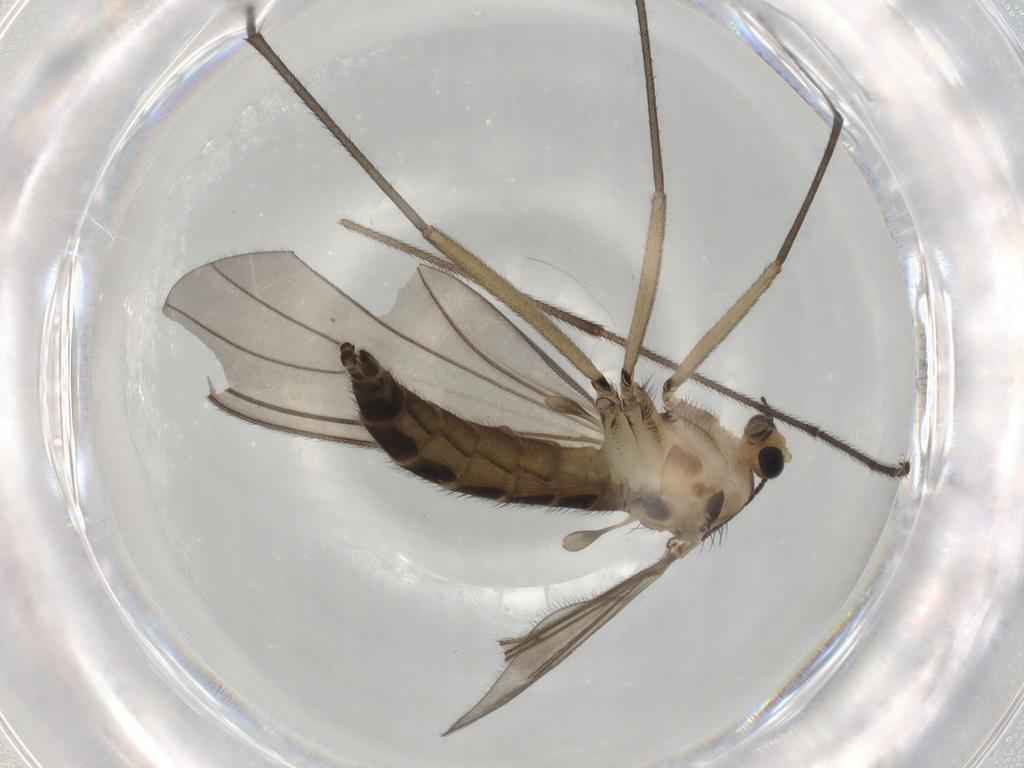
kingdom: Animalia
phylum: Arthropoda
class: Insecta
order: Diptera
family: Sciaridae
